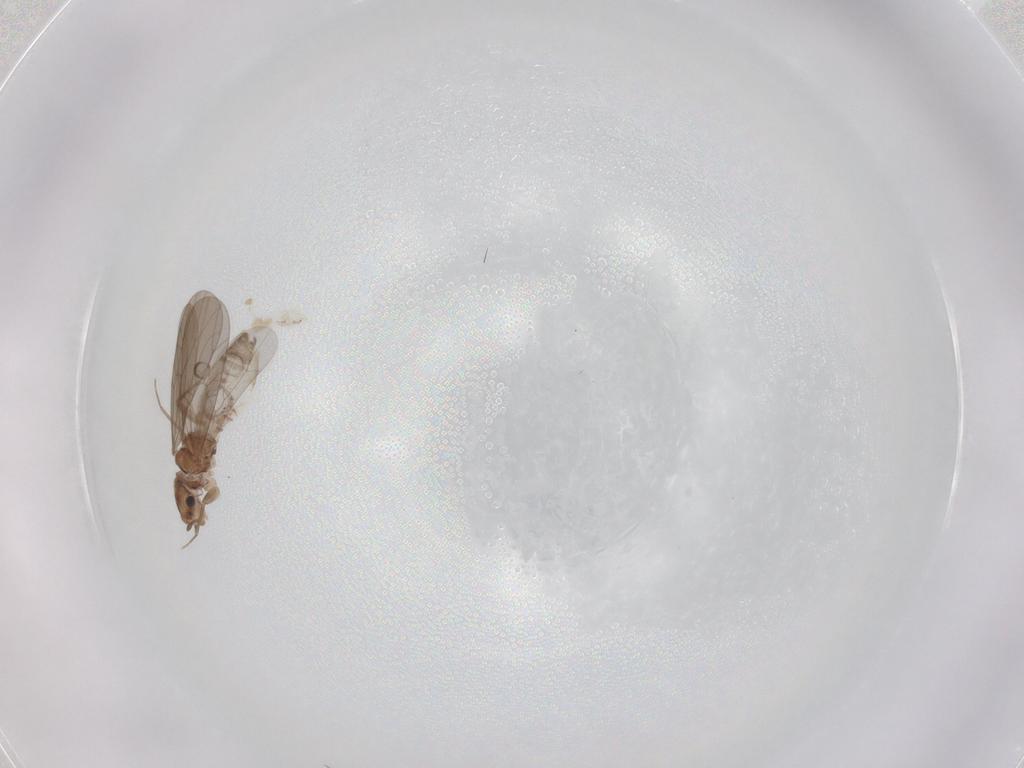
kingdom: Animalia
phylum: Arthropoda
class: Insecta
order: Psocodea
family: Lepidopsocidae
